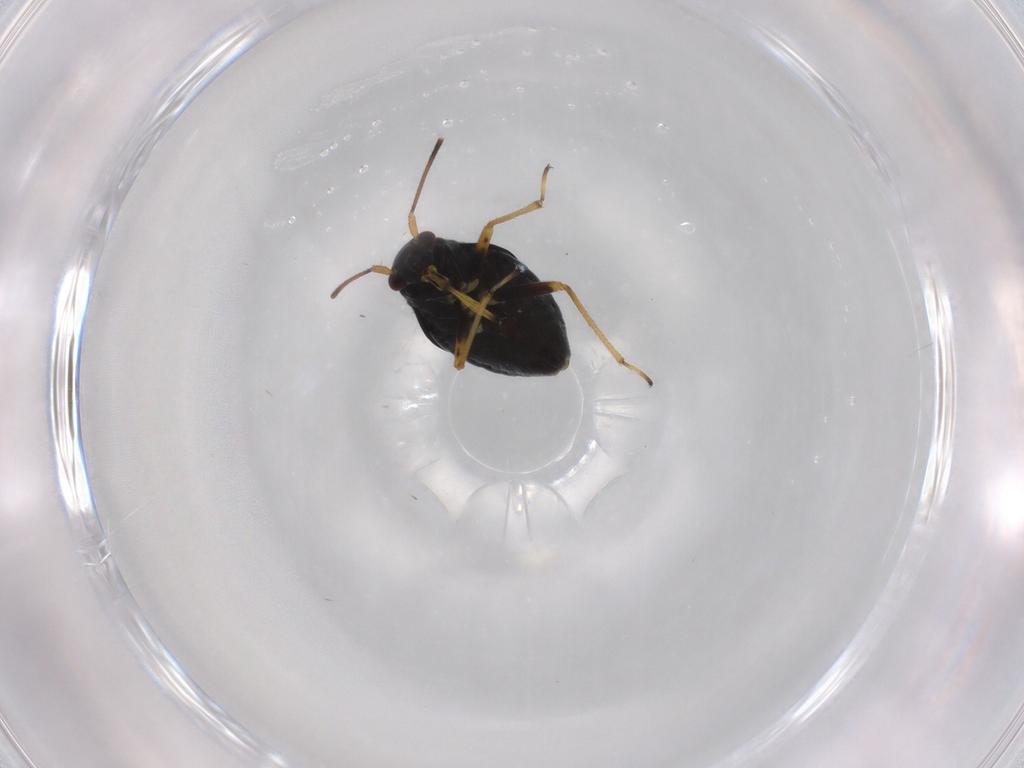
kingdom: Animalia
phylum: Arthropoda
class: Insecta
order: Hemiptera
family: Miridae
